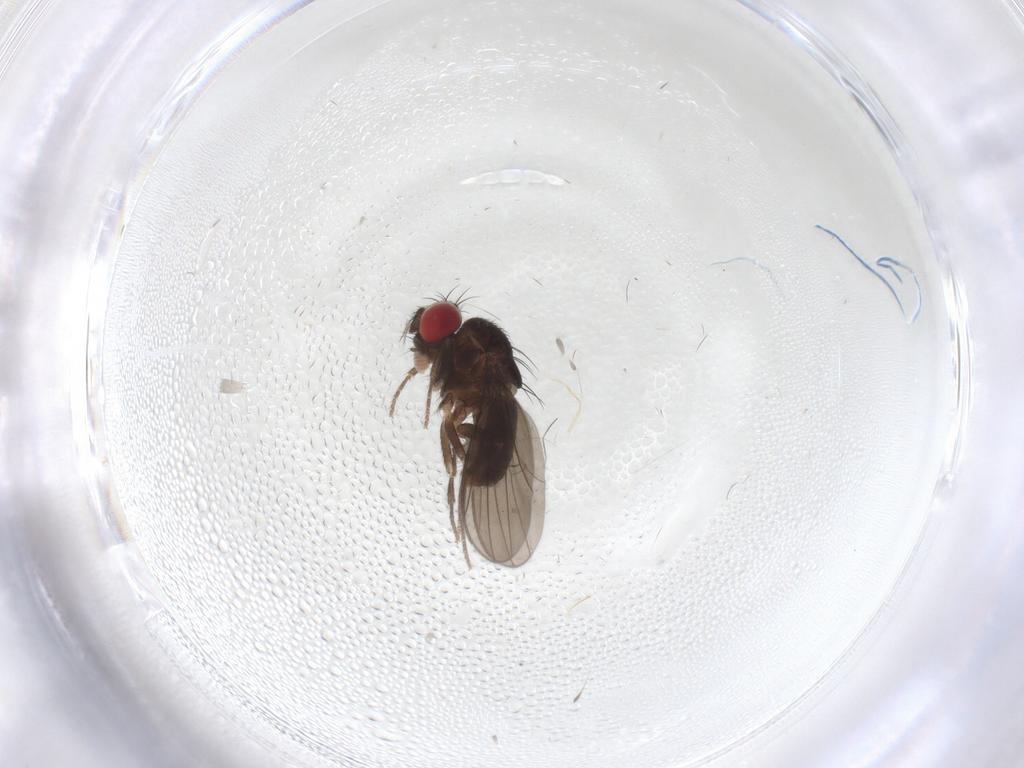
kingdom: Animalia
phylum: Arthropoda
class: Insecta
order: Diptera
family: Drosophilidae
